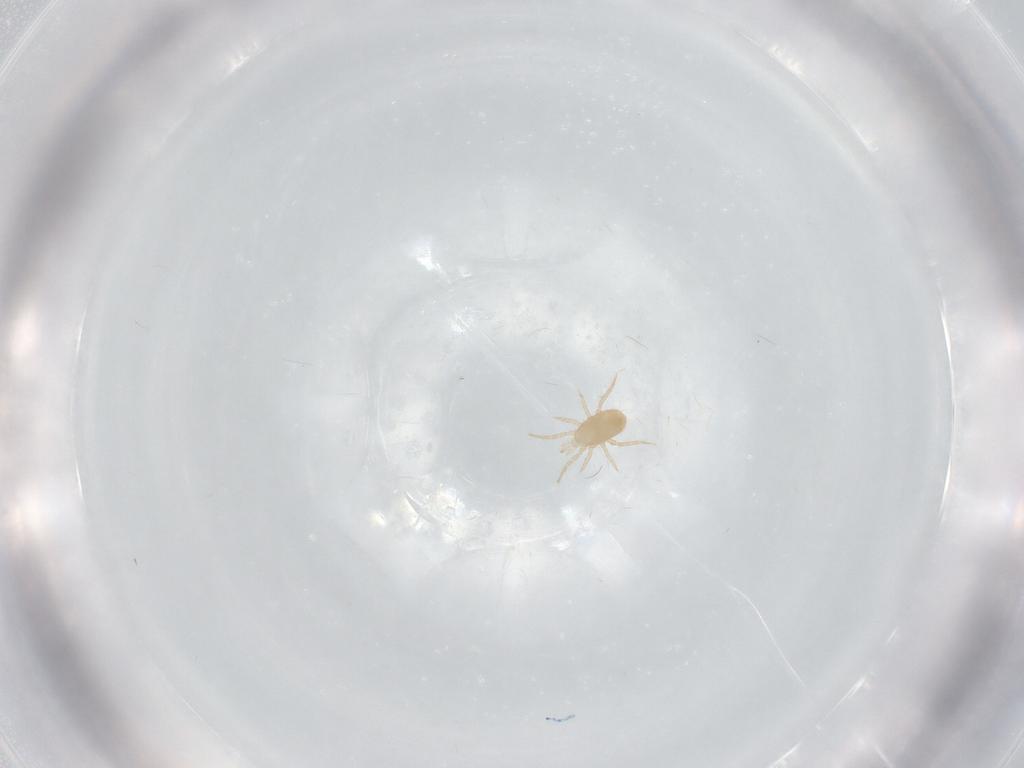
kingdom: Animalia
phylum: Arthropoda
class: Arachnida
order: Mesostigmata
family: Blattisociidae
